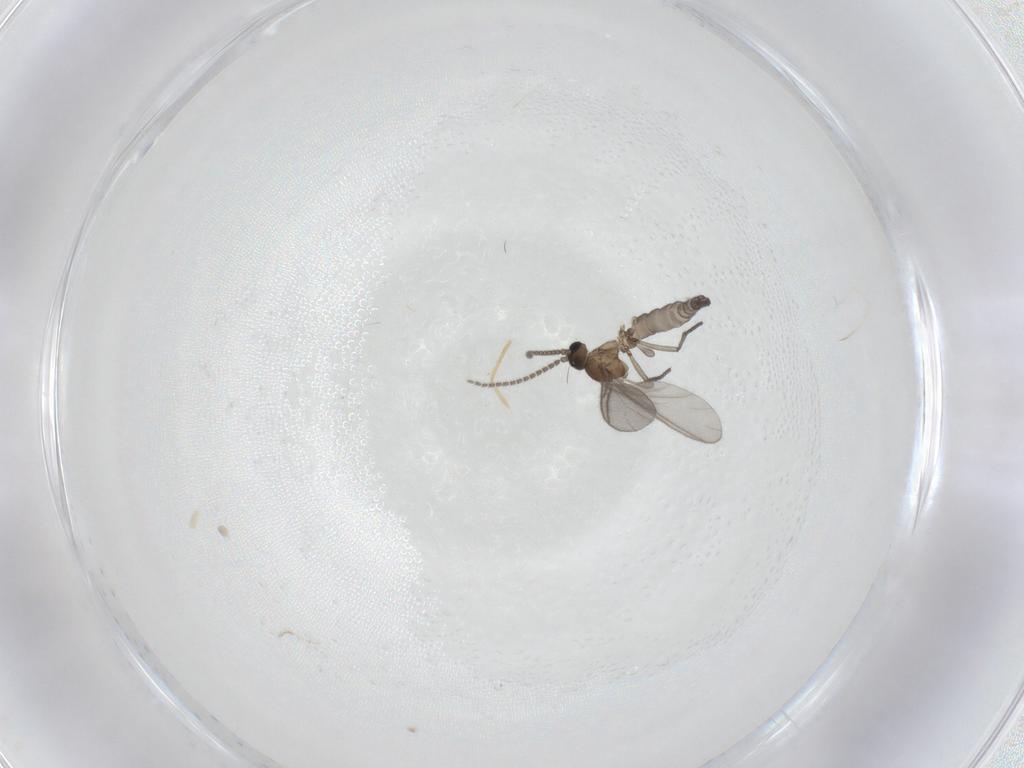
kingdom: Animalia
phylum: Arthropoda
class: Insecta
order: Diptera
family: Sciaridae
